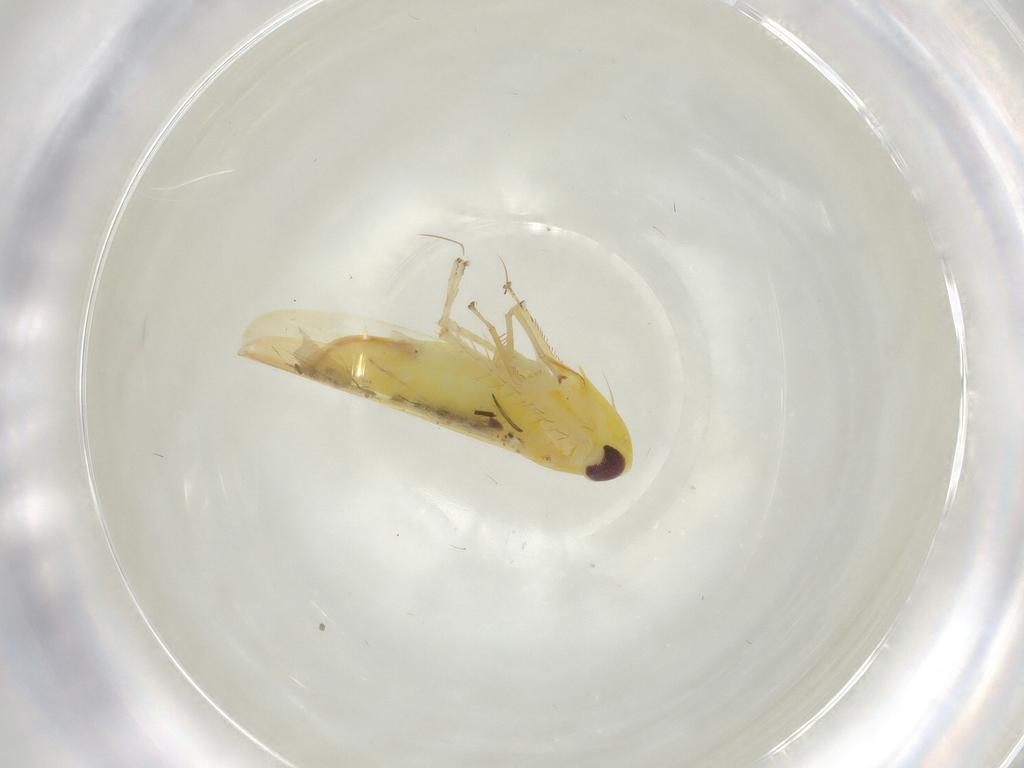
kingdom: Animalia
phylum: Arthropoda
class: Insecta
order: Hemiptera
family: Cicadellidae
